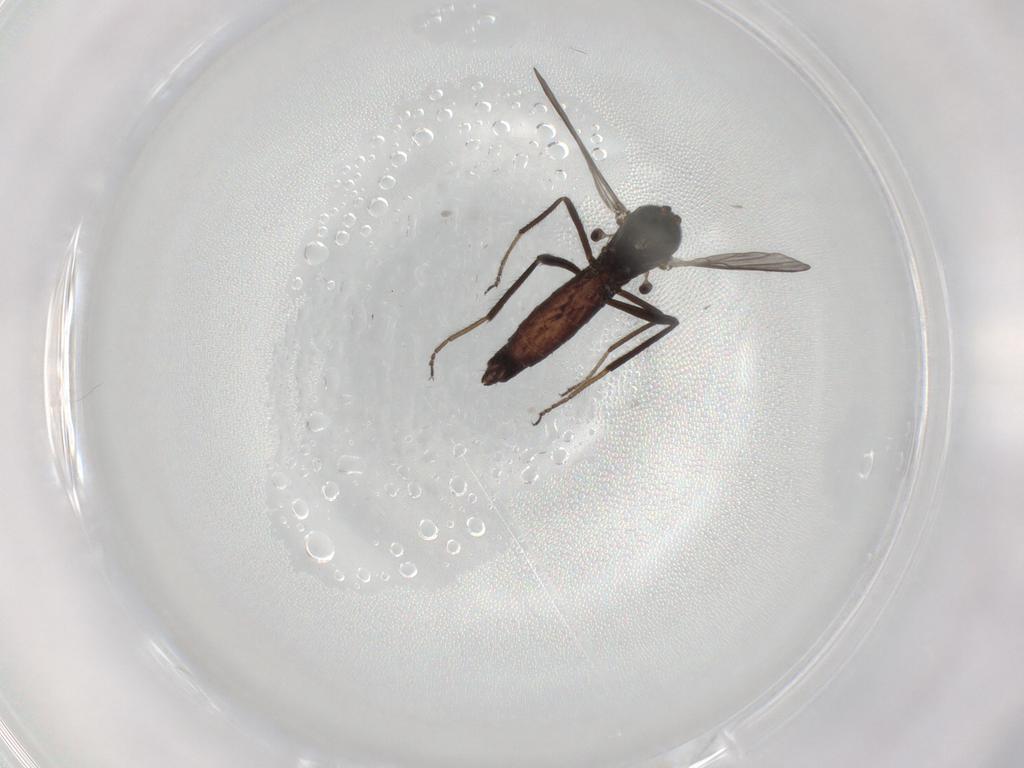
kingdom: Animalia
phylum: Arthropoda
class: Insecta
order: Diptera
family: Ceratopogonidae
